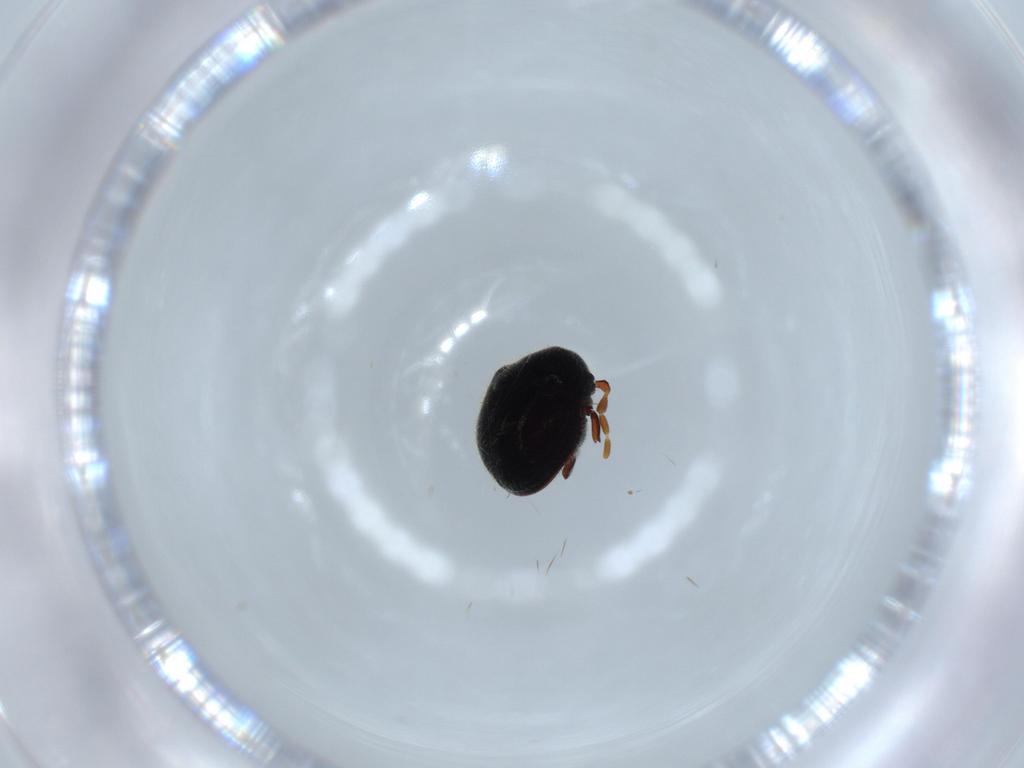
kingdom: Animalia
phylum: Arthropoda
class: Insecta
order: Coleoptera
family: Ptinidae
